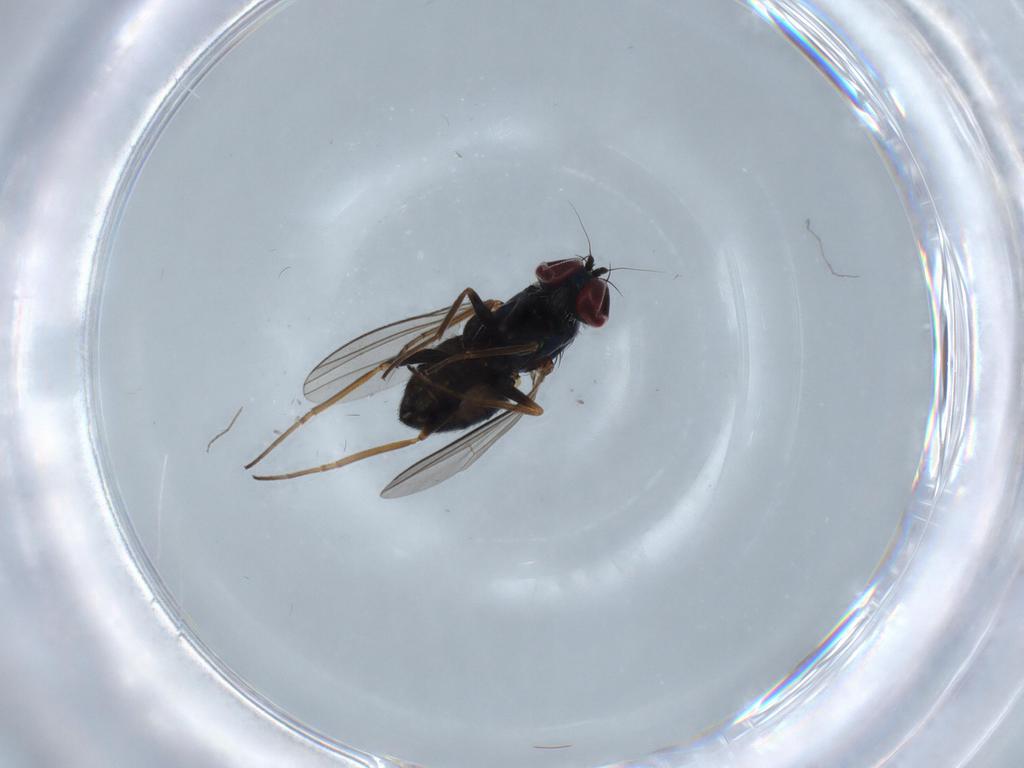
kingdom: Animalia
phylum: Arthropoda
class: Insecta
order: Diptera
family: Dolichopodidae
